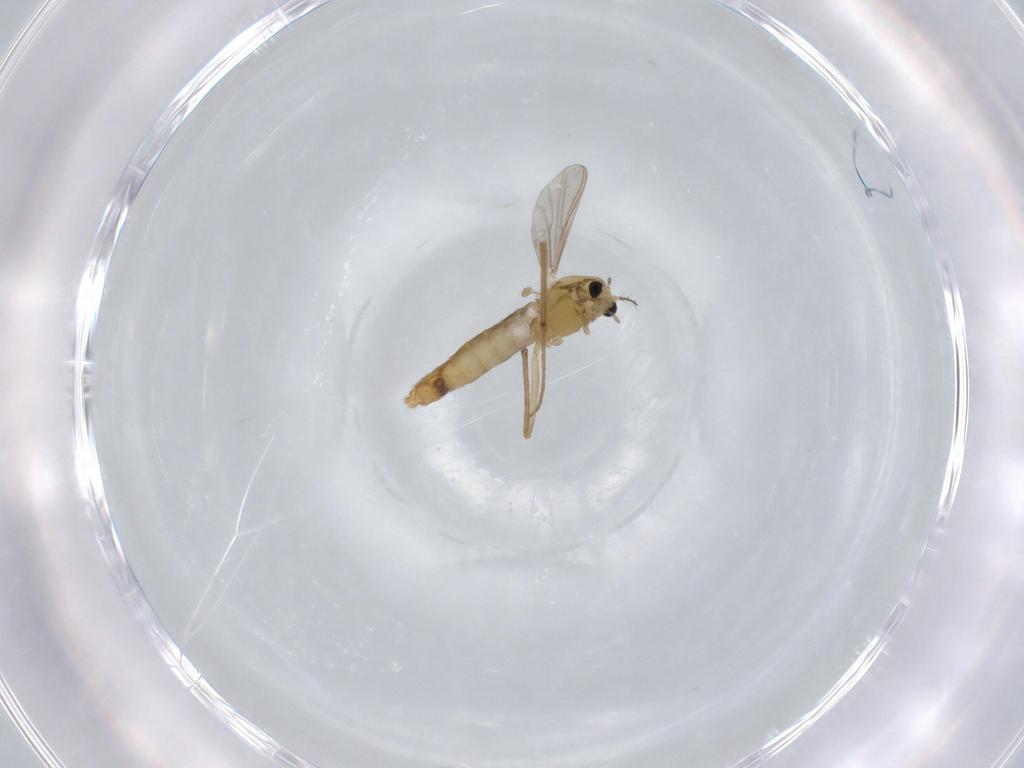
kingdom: Animalia
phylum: Arthropoda
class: Insecta
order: Diptera
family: Chironomidae
